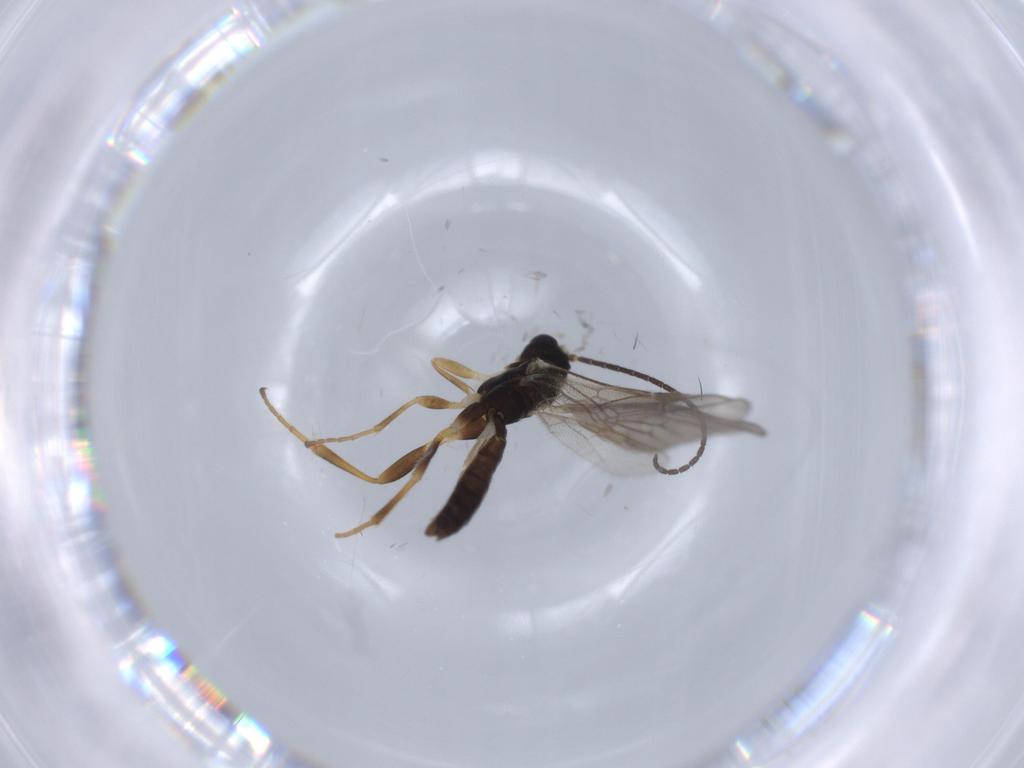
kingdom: Animalia
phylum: Arthropoda
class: Insecta
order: Hymenoptera
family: Ichneumonidae
